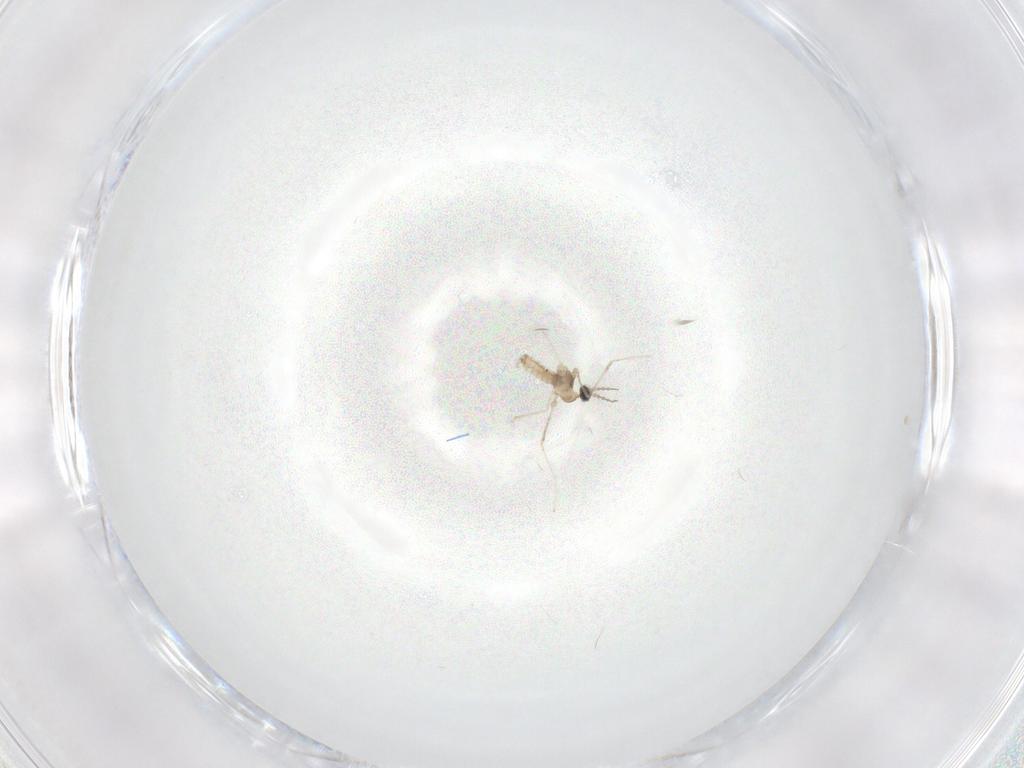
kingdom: Animalia
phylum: Arthropoda
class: Insecta
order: Diptera
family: Cecidomyiidae
